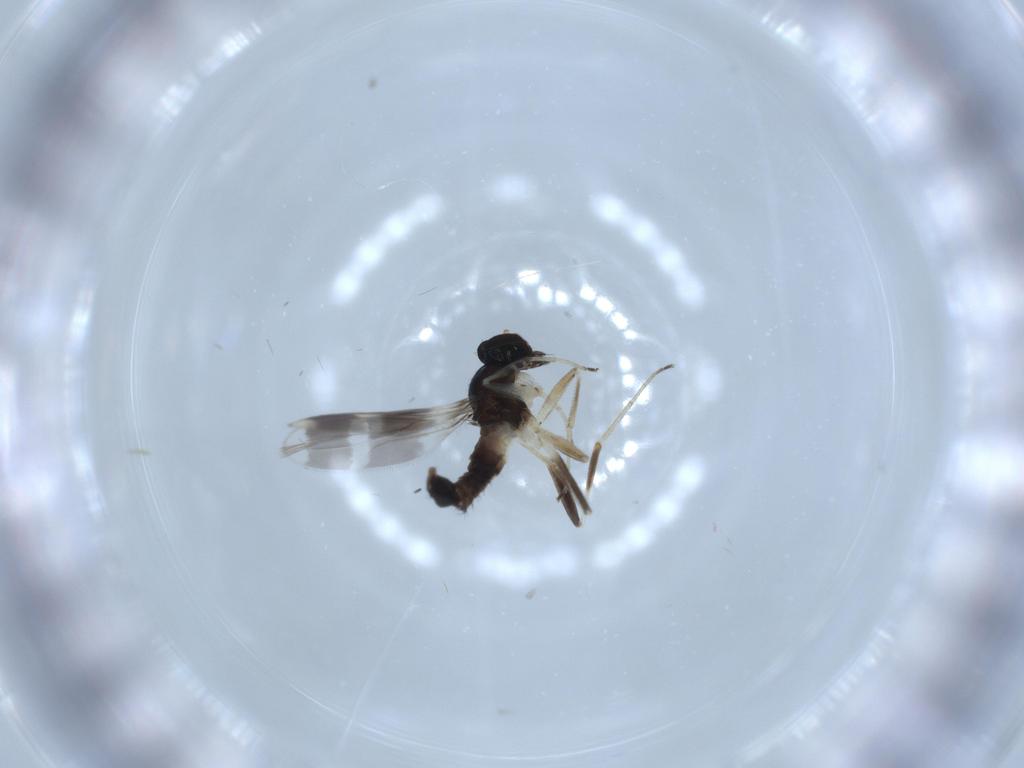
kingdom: Animalia
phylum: Arthropoda
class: Insecta
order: Diptera
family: Hybotidae
